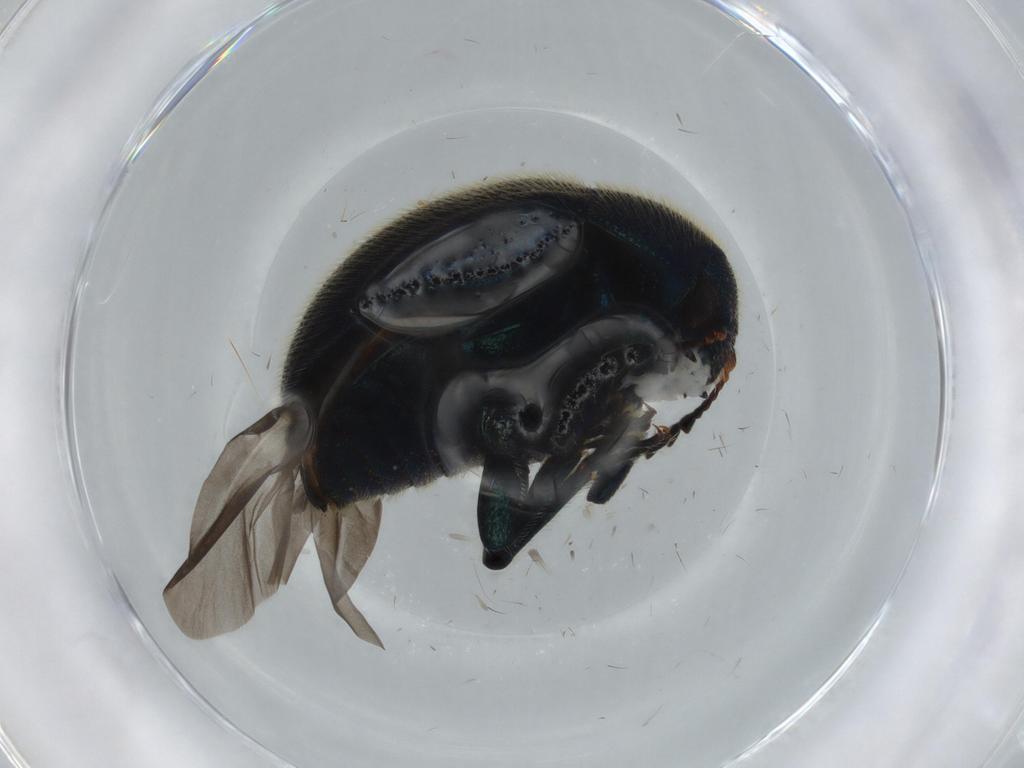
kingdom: Animalia
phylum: Arthropoda
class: Insecta
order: Coleoptera
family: Chrysomelidae
